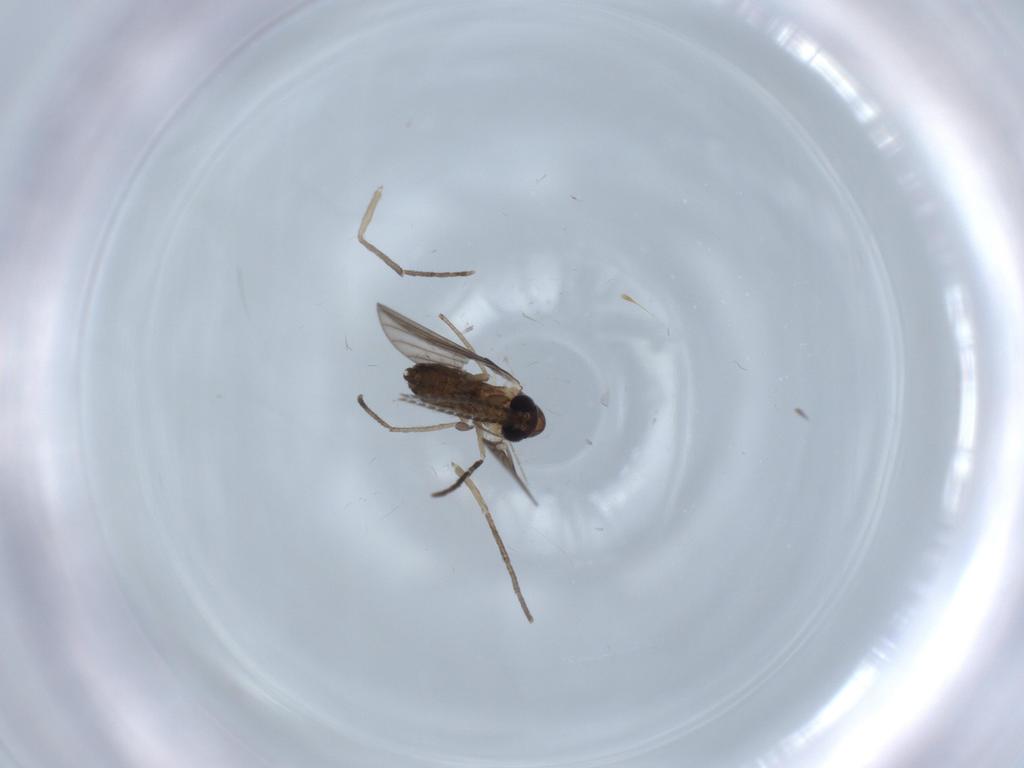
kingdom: Animalia
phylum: Arthropoda
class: Insecta
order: Diptera
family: Psychodidae
